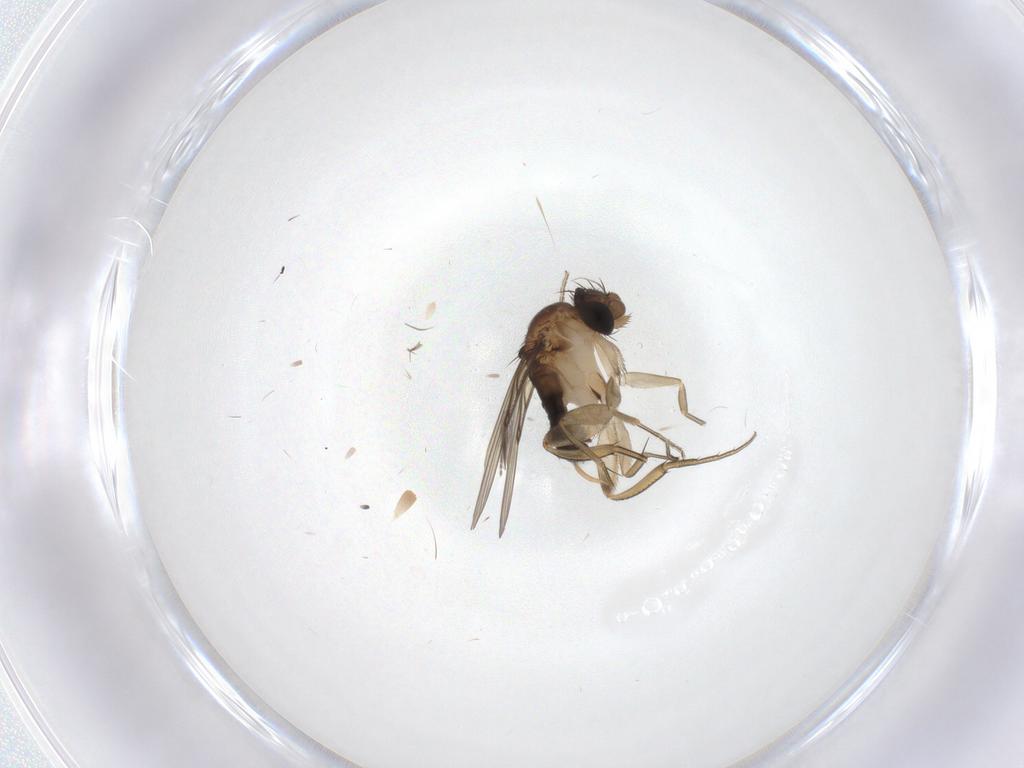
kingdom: Animalia
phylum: Arthropoda
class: Insecta
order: Diptera
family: Phoridae
